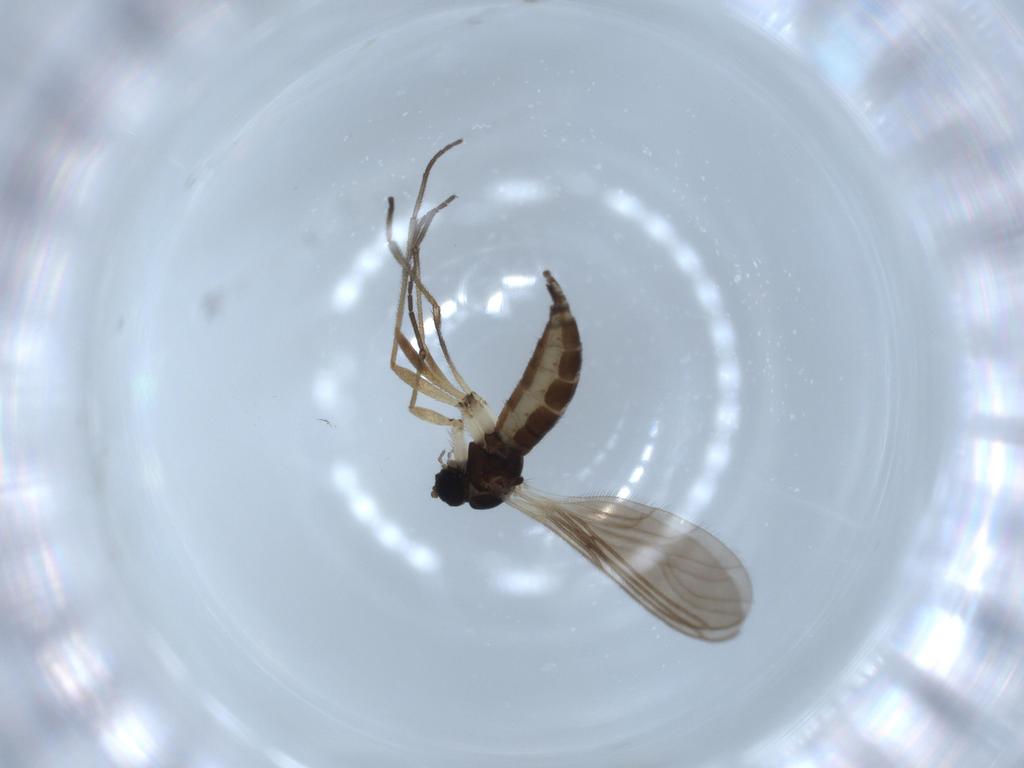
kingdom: Animalia
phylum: Arthropoda
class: Insecta
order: Diptera
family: Sciaridae
